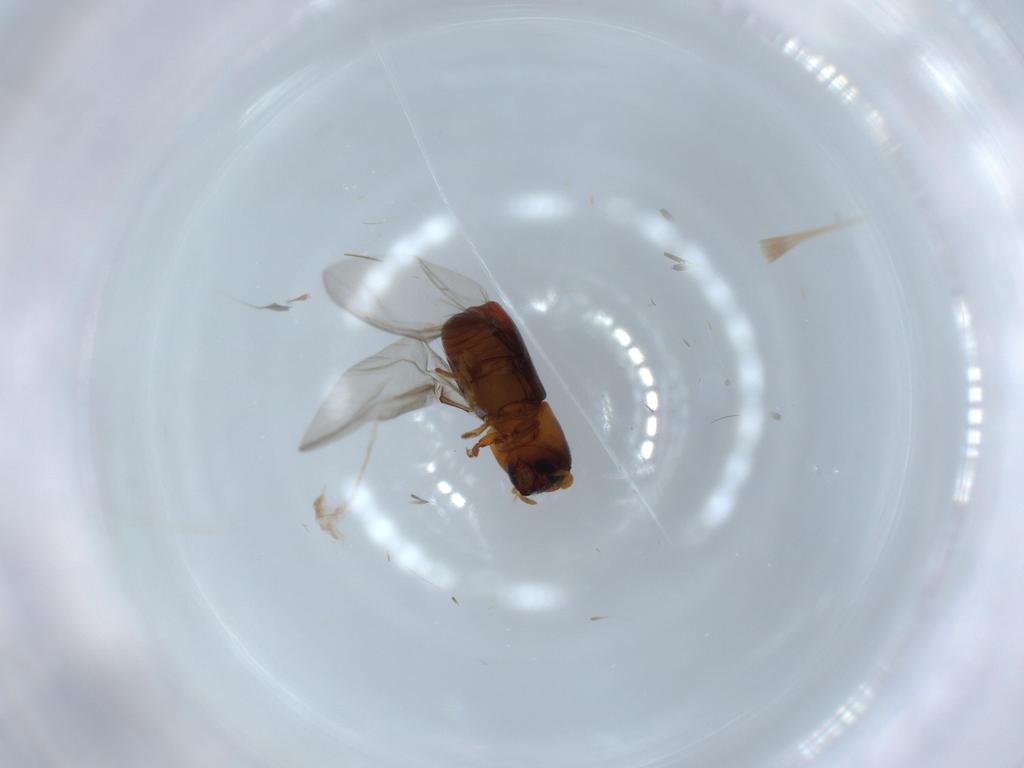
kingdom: Animalia
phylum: Arthropoda
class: Insecta
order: Coleoptera
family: Curculionidae
